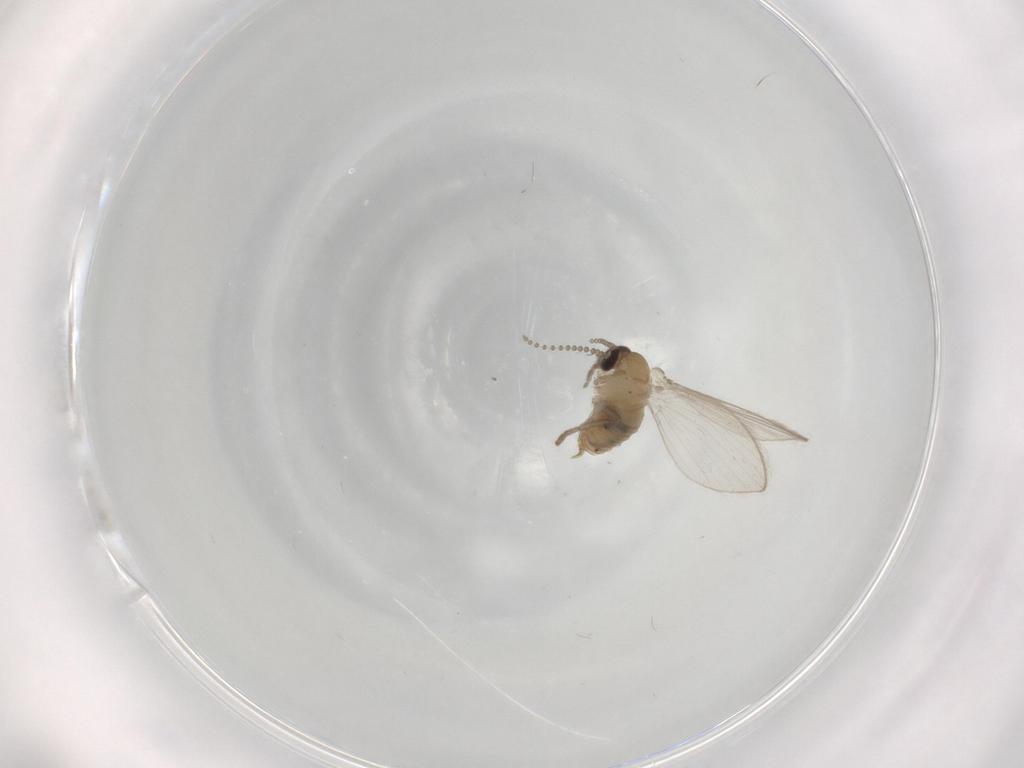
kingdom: Animalia
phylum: Arthropoda
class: Insecta
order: Diptera
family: Psychodidae
